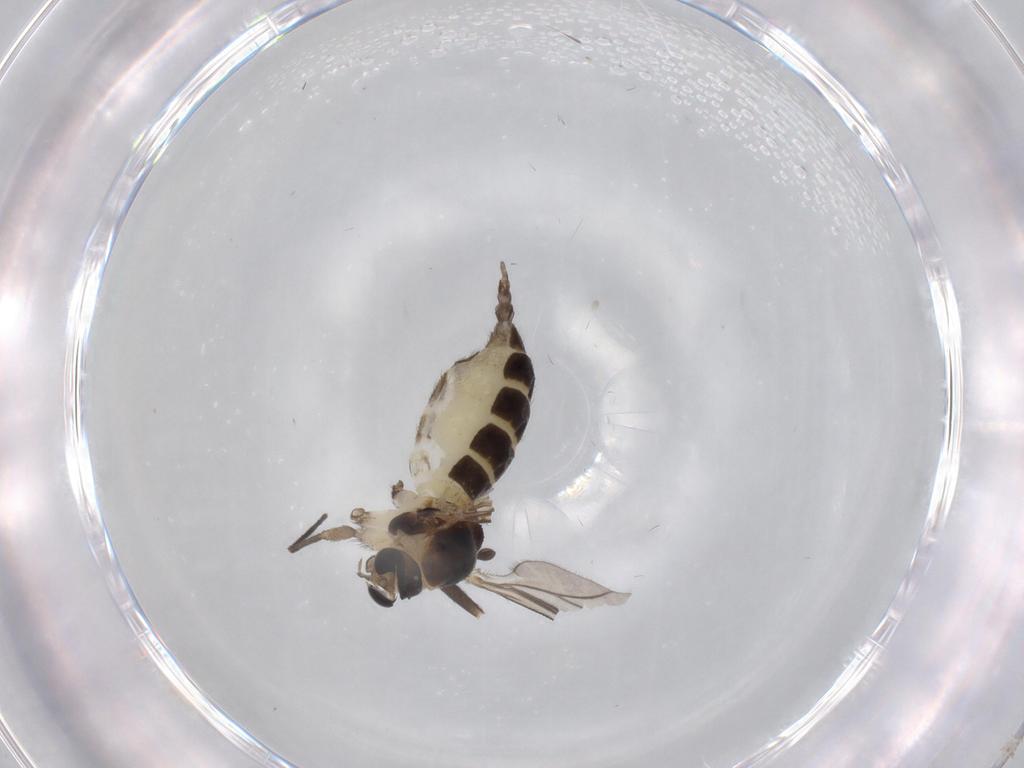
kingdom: Animalia
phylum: Arthropoda
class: Insecta
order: Diptera
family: Sciaridae
